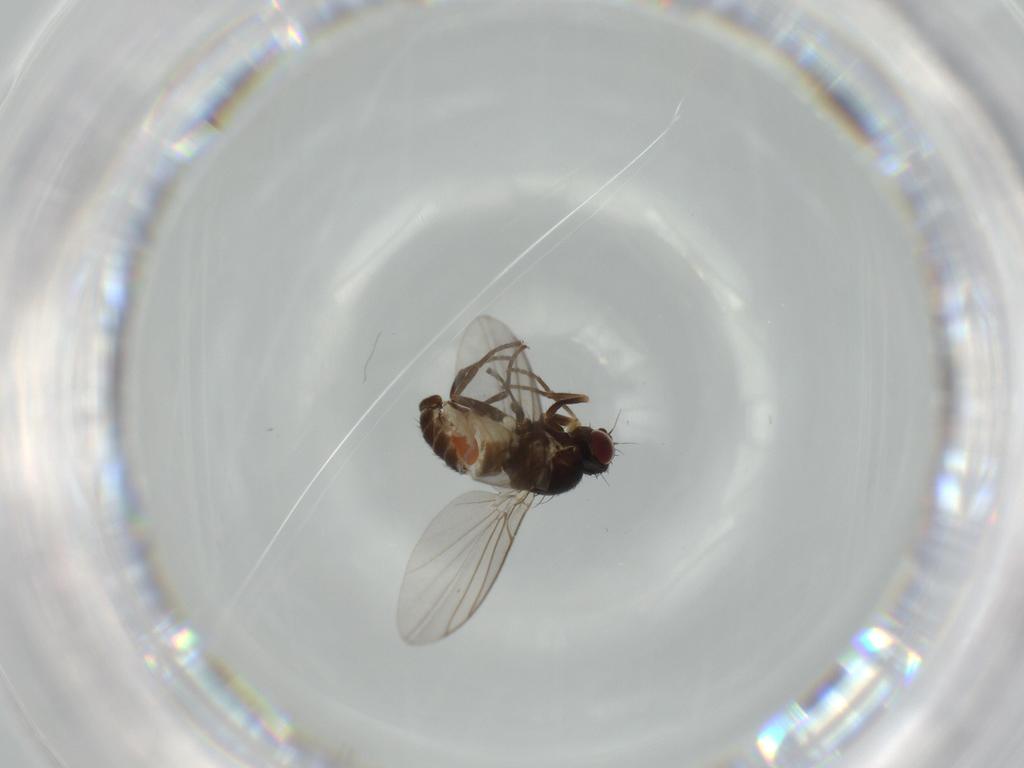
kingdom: Animalia
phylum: Arthropoda
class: Insecta
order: Diptera
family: Agromyzidae
